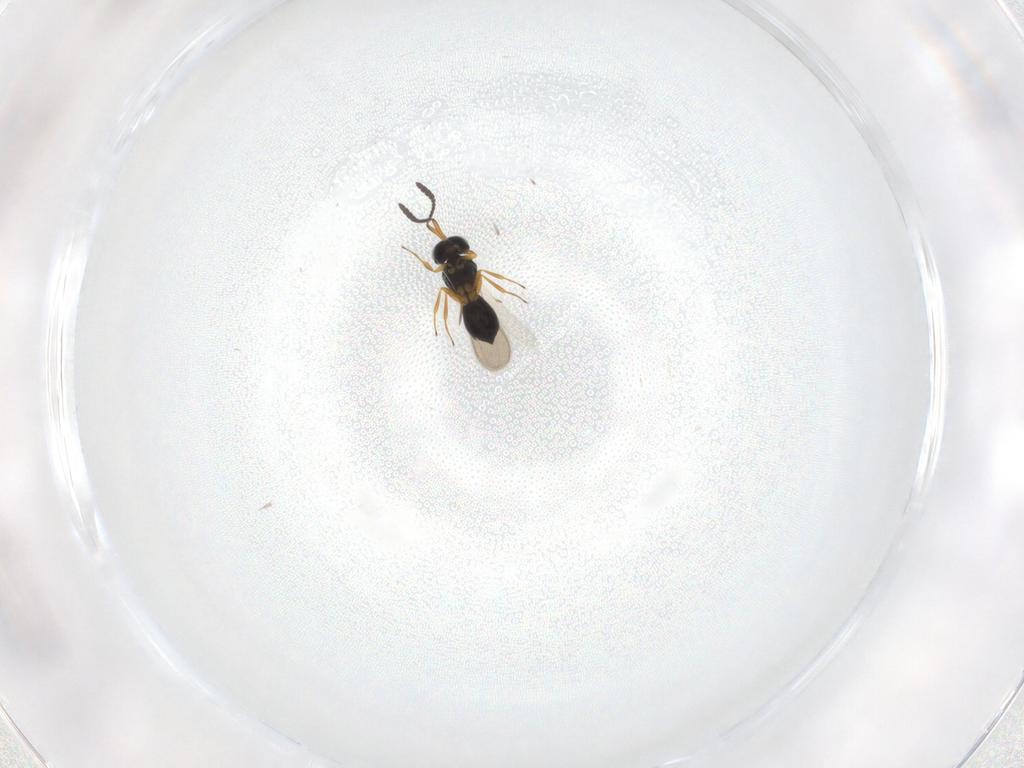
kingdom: Animalia
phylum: Arthropoda
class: Insecta
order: Hymenoptera
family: Scelionidae
